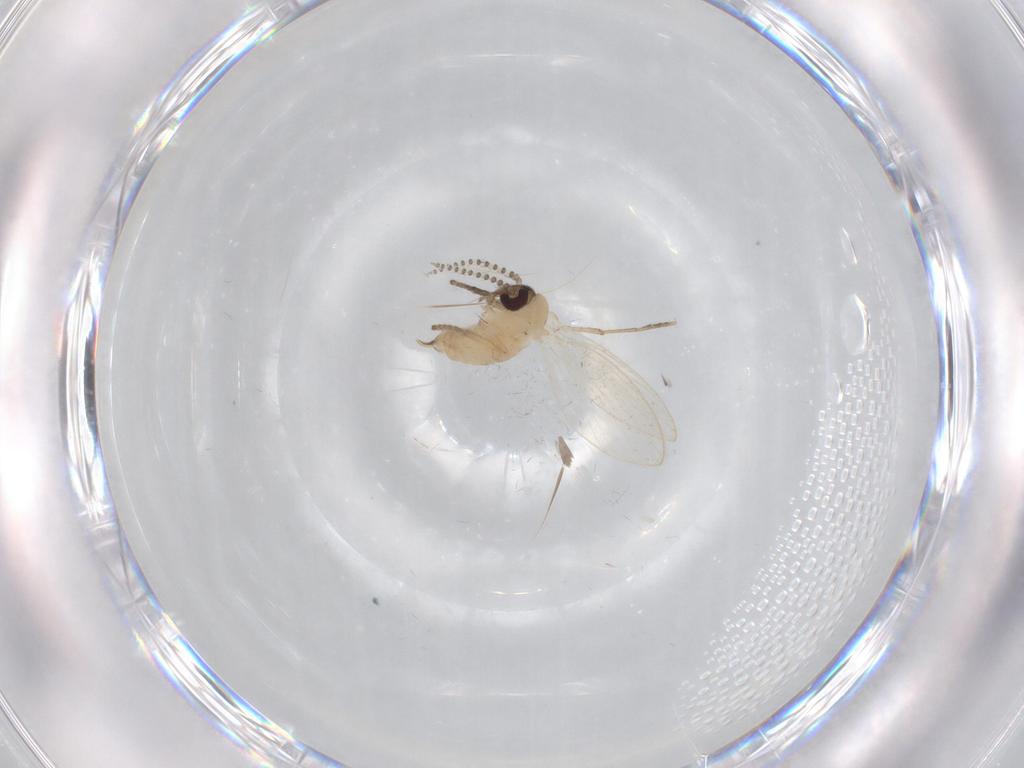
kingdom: Animalia
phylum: Arthropoda
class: Insecta
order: Diptera
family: Psychodidae
